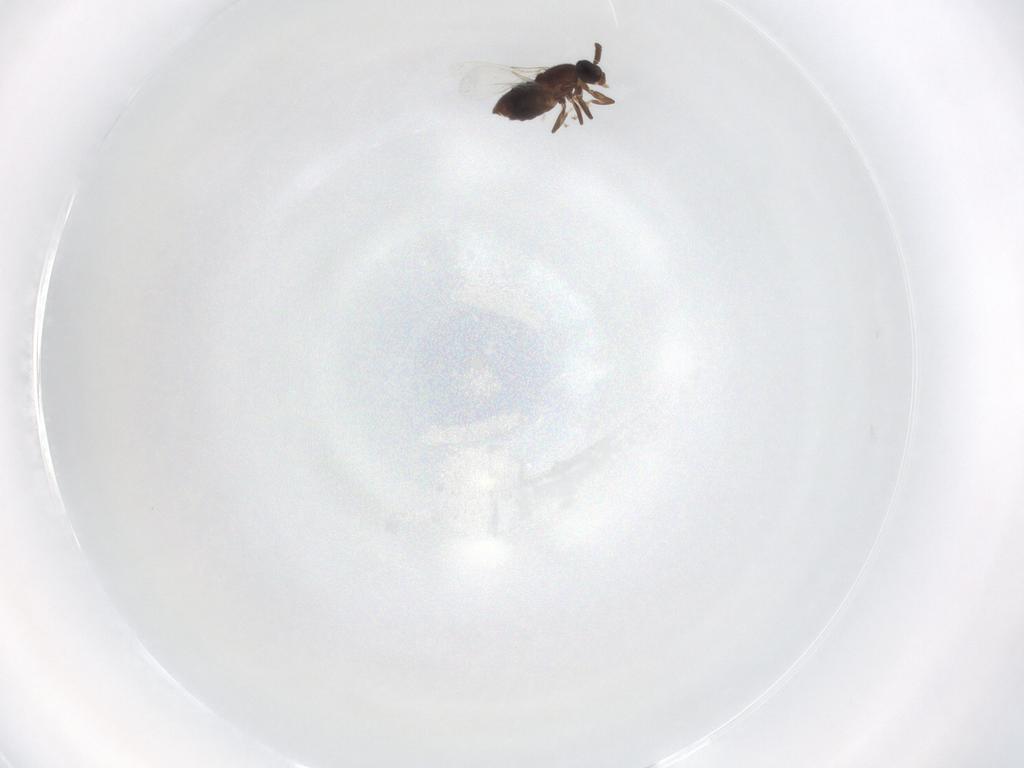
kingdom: Animalia
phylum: Arthropoda
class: Insecta
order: Diptera
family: Scatopsidae
